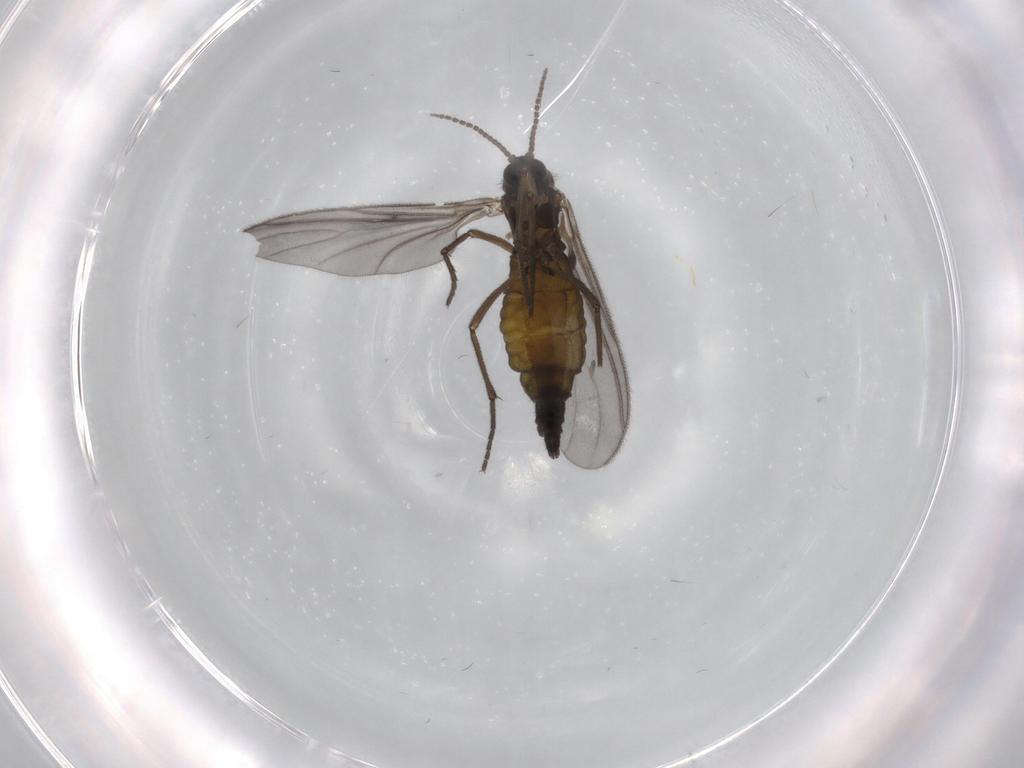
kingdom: Animalia
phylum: Arthropoda
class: Insecta
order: Diptera
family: Sciaridae
